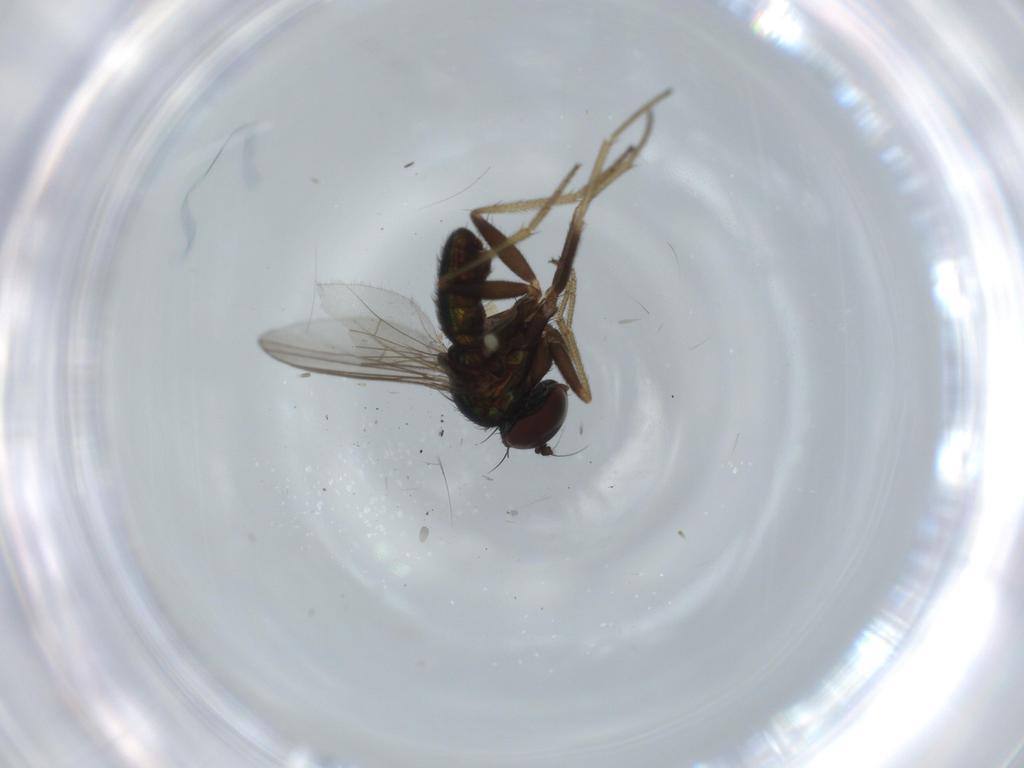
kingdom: Animalia
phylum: Arthropoda
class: Insecta
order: Diptera
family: Dolichopodidae
